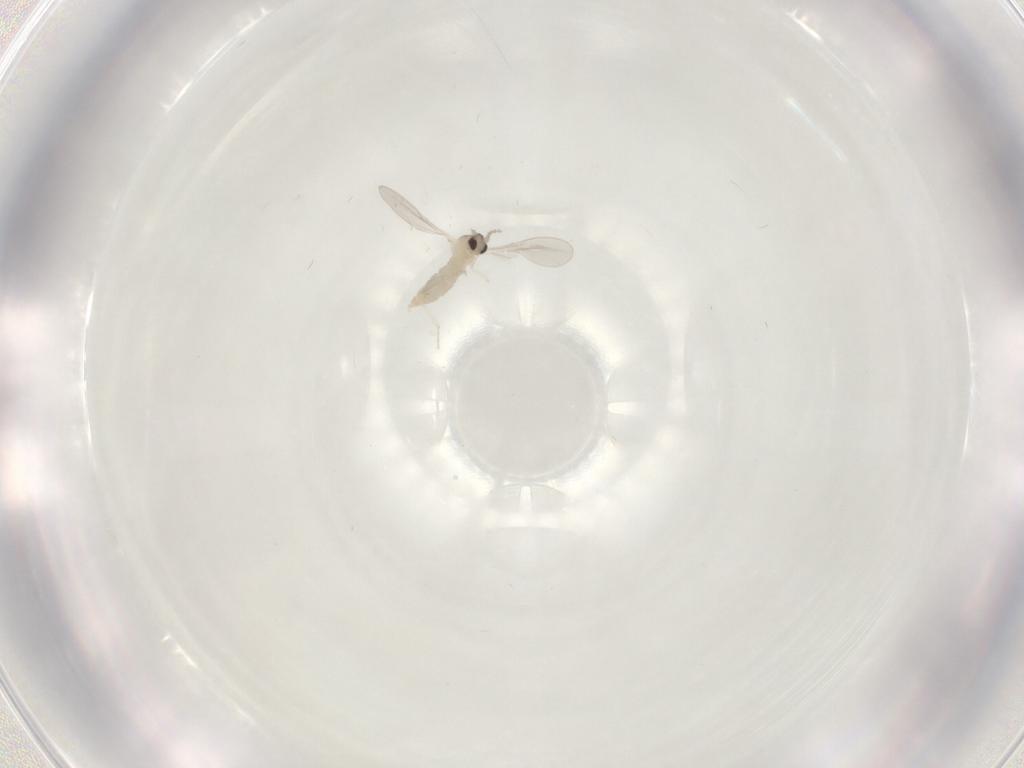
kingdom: Animalia
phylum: Arthropoda
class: Insecta
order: Diptera
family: Cecidomyiidae
